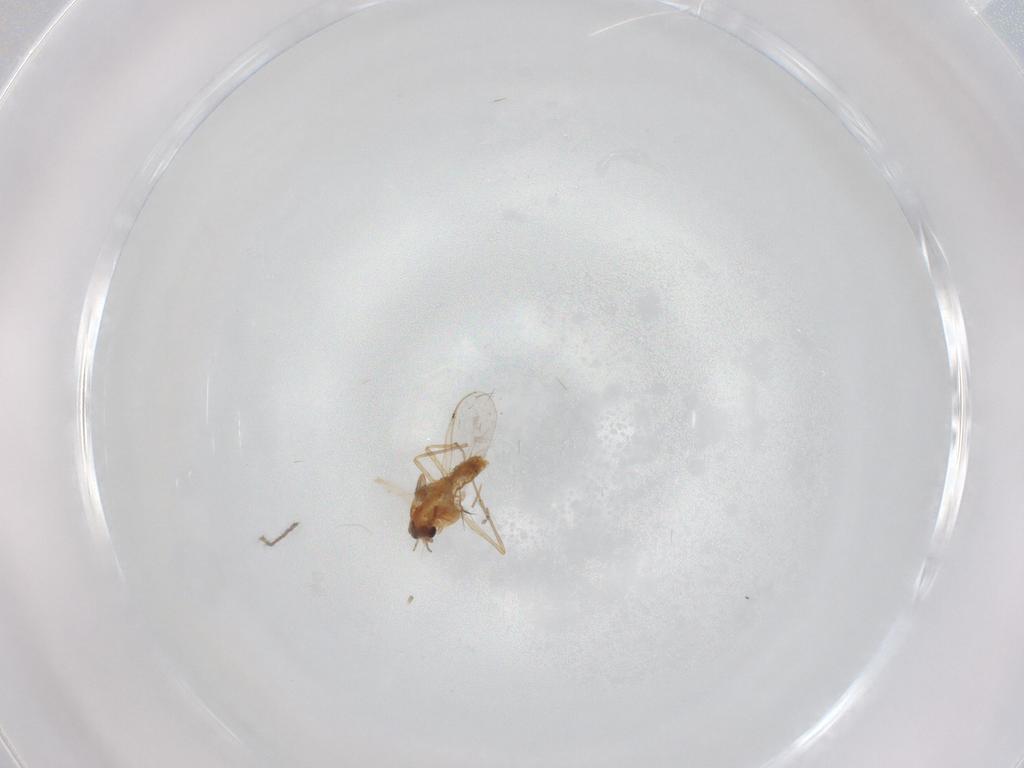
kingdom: Animalia
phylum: Arthropoda
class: Insecta
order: Diptera
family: Chironomidae
